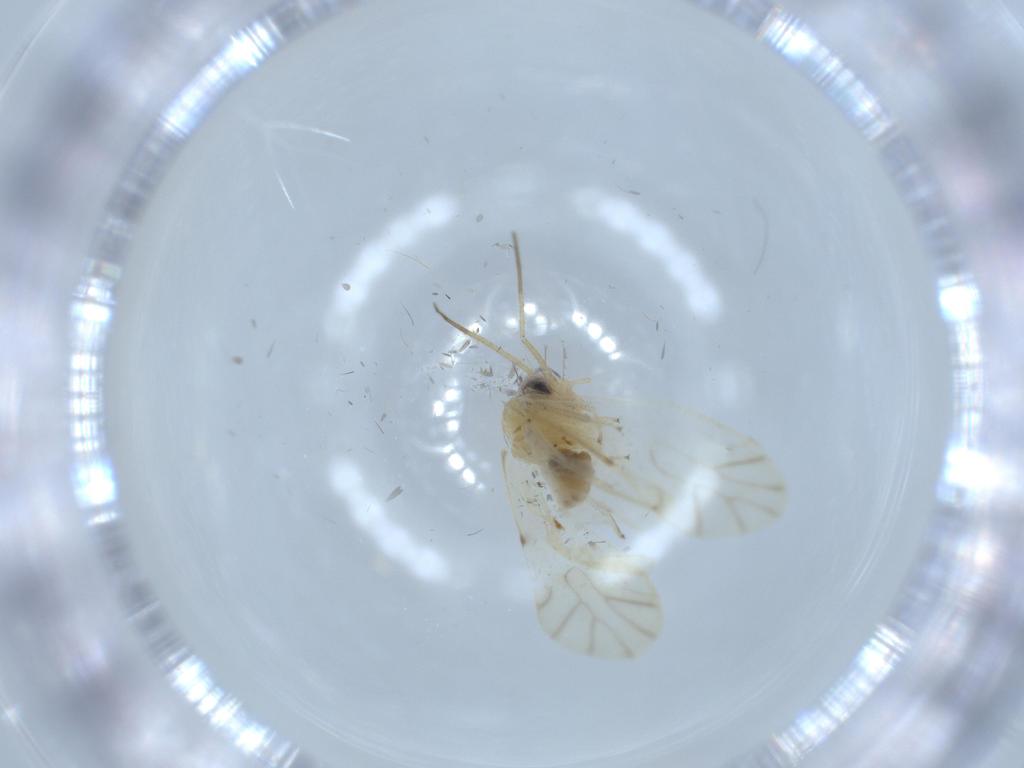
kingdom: Animalia
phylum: Arthropoda
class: Insecta
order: Psocodea
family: Caeciliusidae
